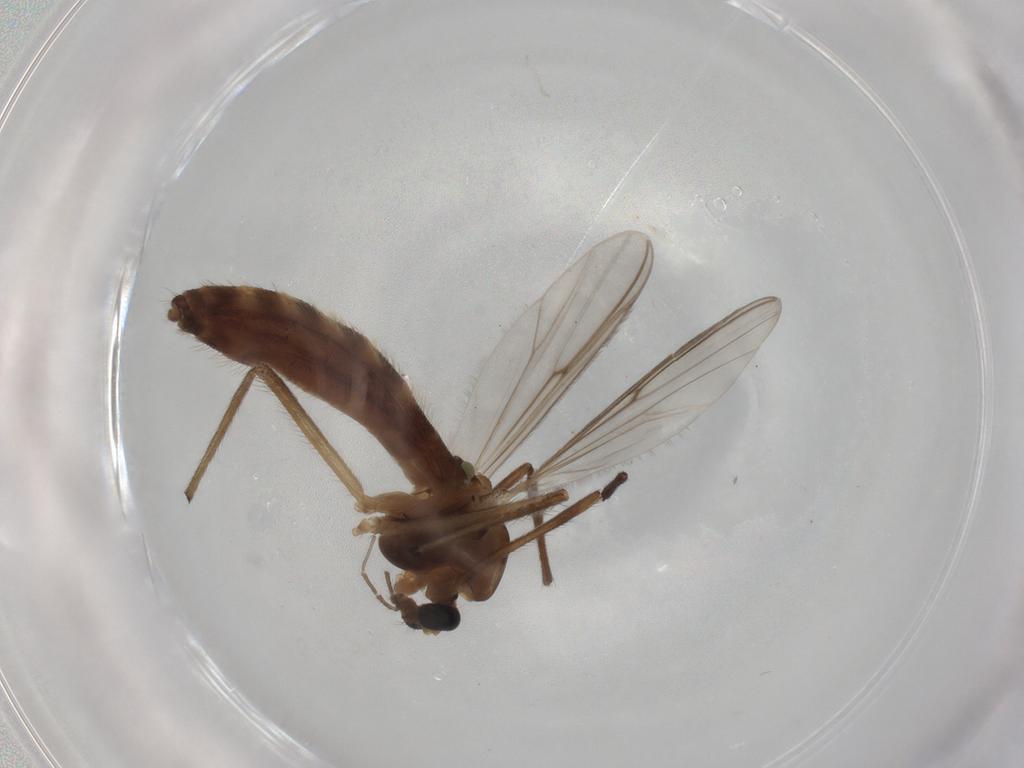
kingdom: Animalia
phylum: Arthropoda
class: Insecta
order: Diptera
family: Chironomidae
